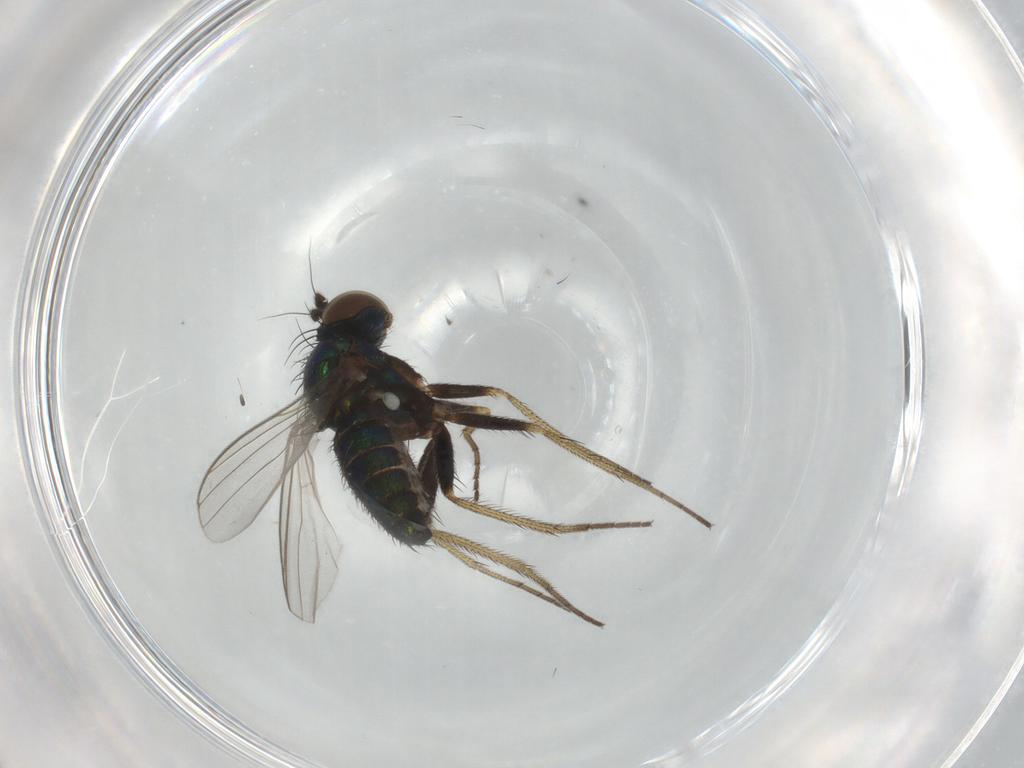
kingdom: Animalia
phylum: Arthropoda
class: Insecta
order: Diptera
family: Dolichopodidae
